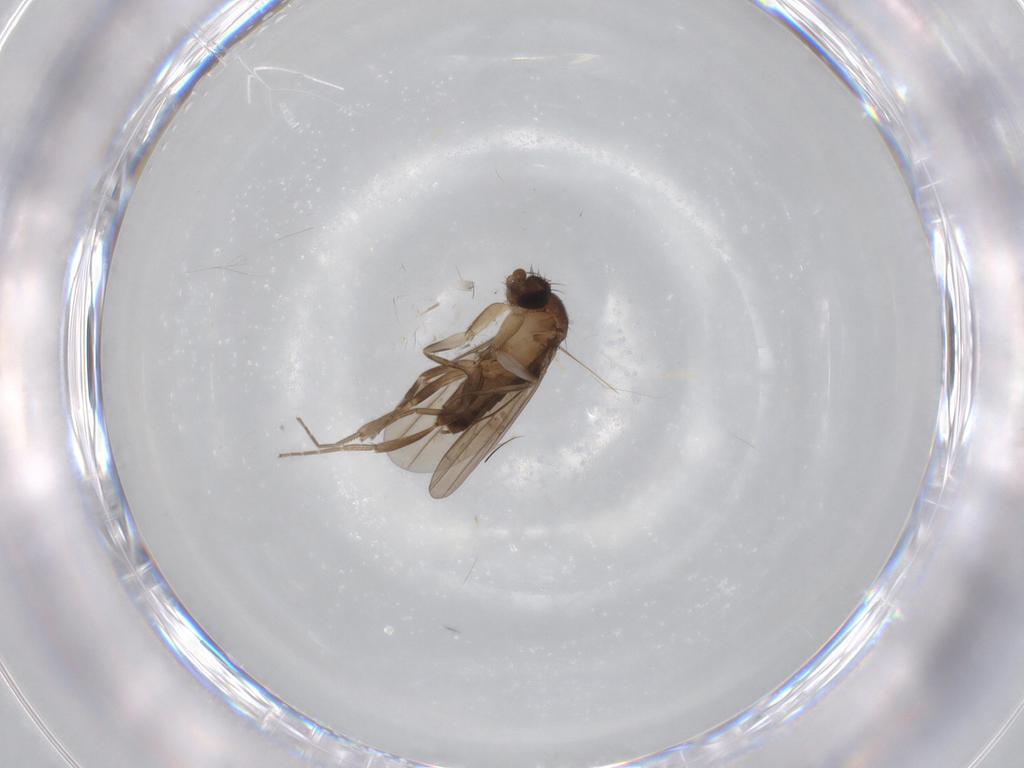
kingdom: Animalia
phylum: Arthropoda
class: Insecta
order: Diptera
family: Cecidomyiidae
